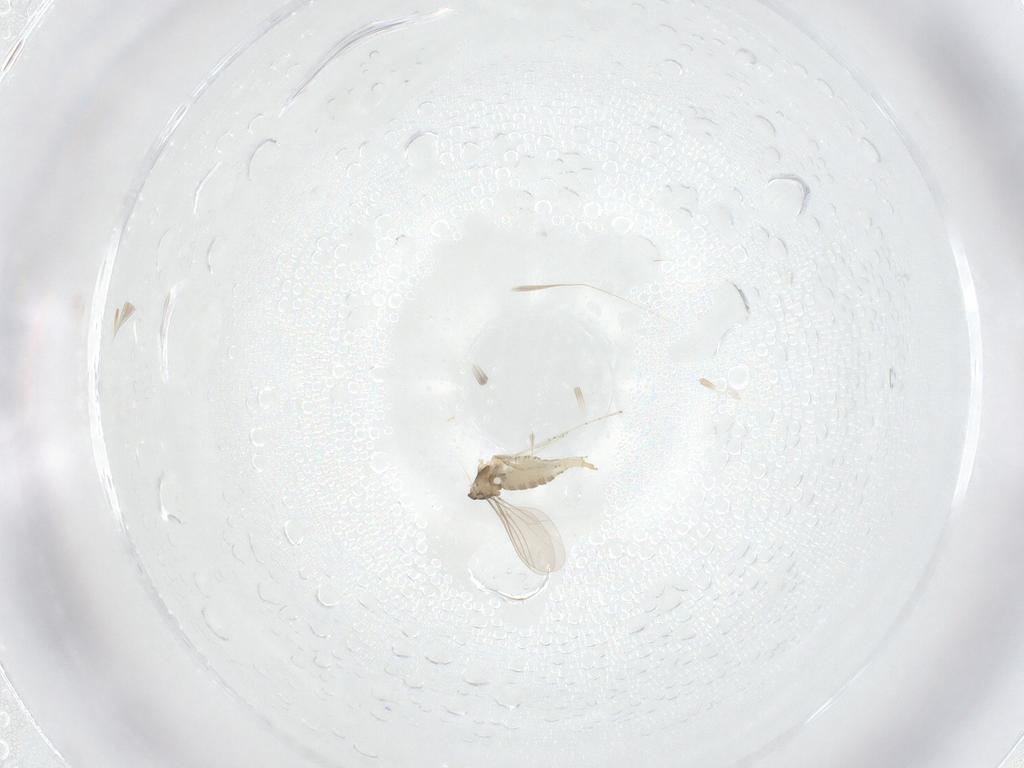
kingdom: Animalia
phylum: Arthropoda
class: Insecta
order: Diptera
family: Cecidomyiidae
